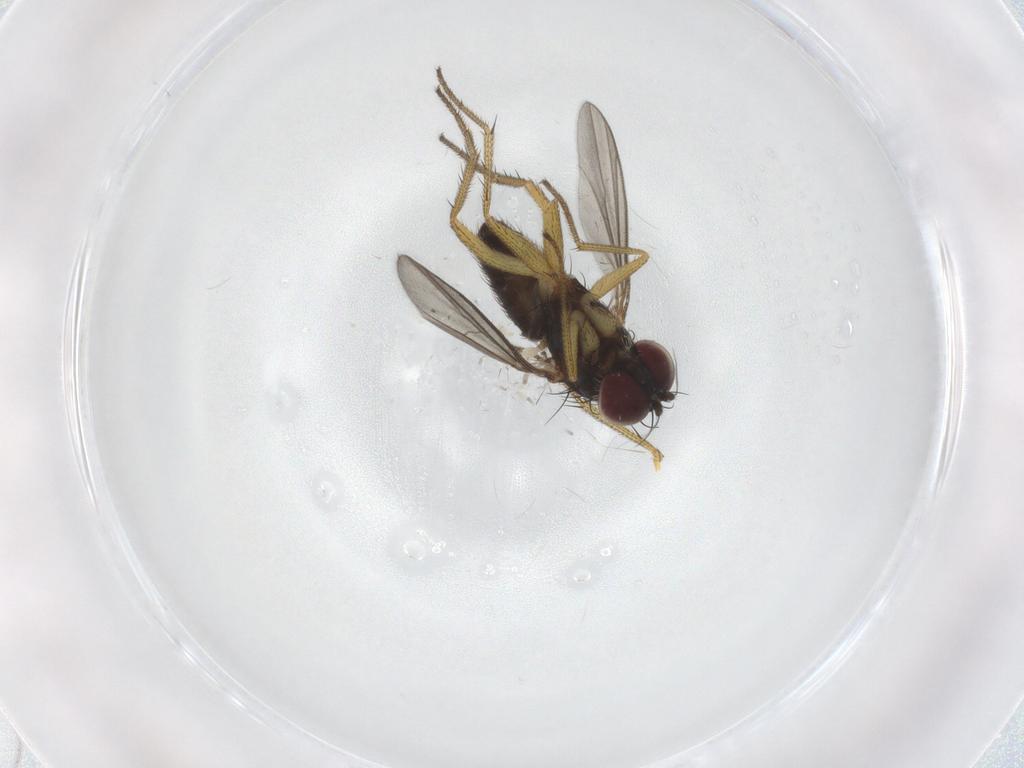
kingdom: Animalia
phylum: Arthropoda
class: Insecta
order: Diptera
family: Dolichopodidae
